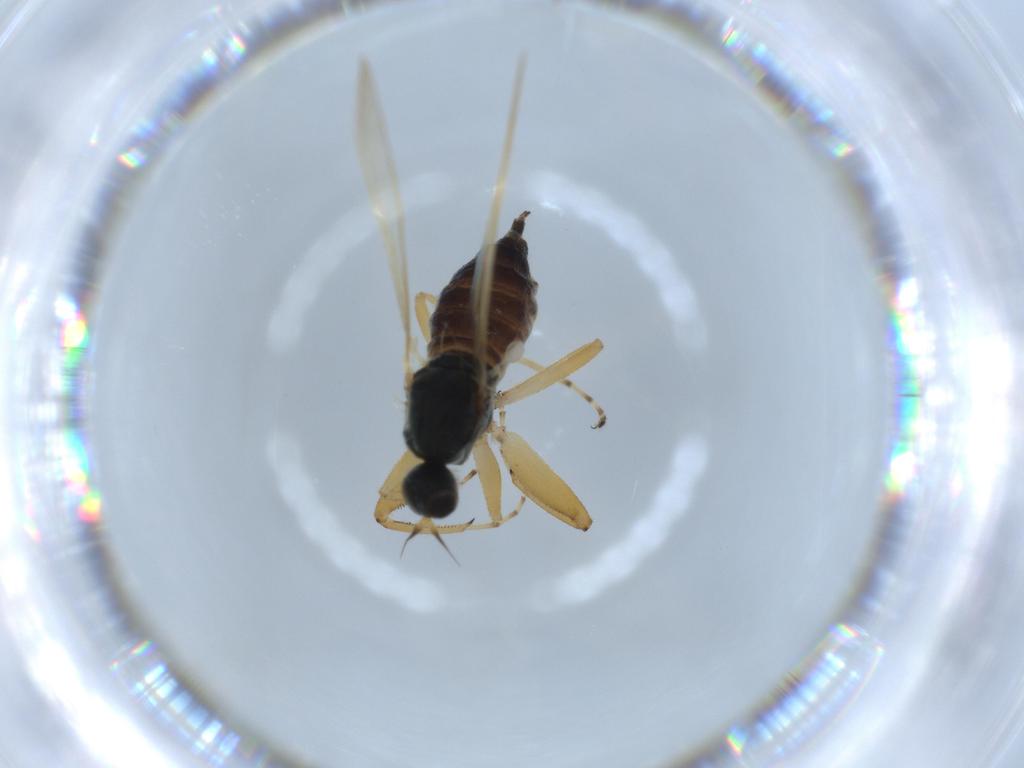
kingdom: Animalia
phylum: Arthropoda
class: Insecta
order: Diptera
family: Hybotidae
